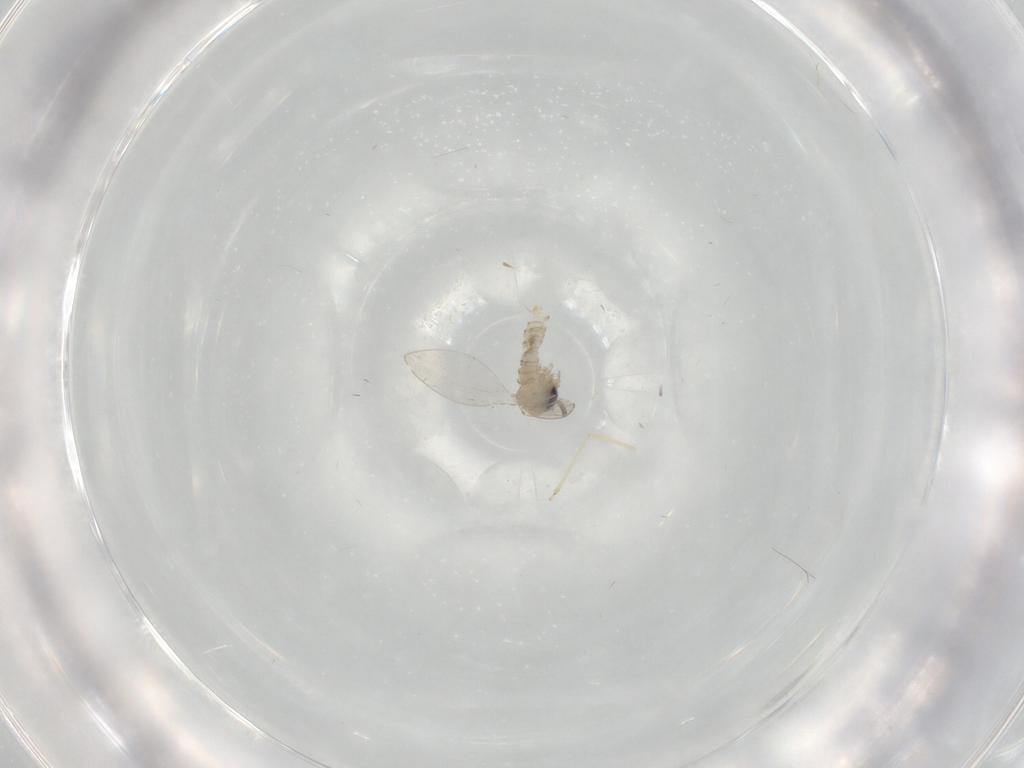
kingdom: Animalia
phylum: Arthropoda
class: Insecta
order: Diptera
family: Psychodidae
